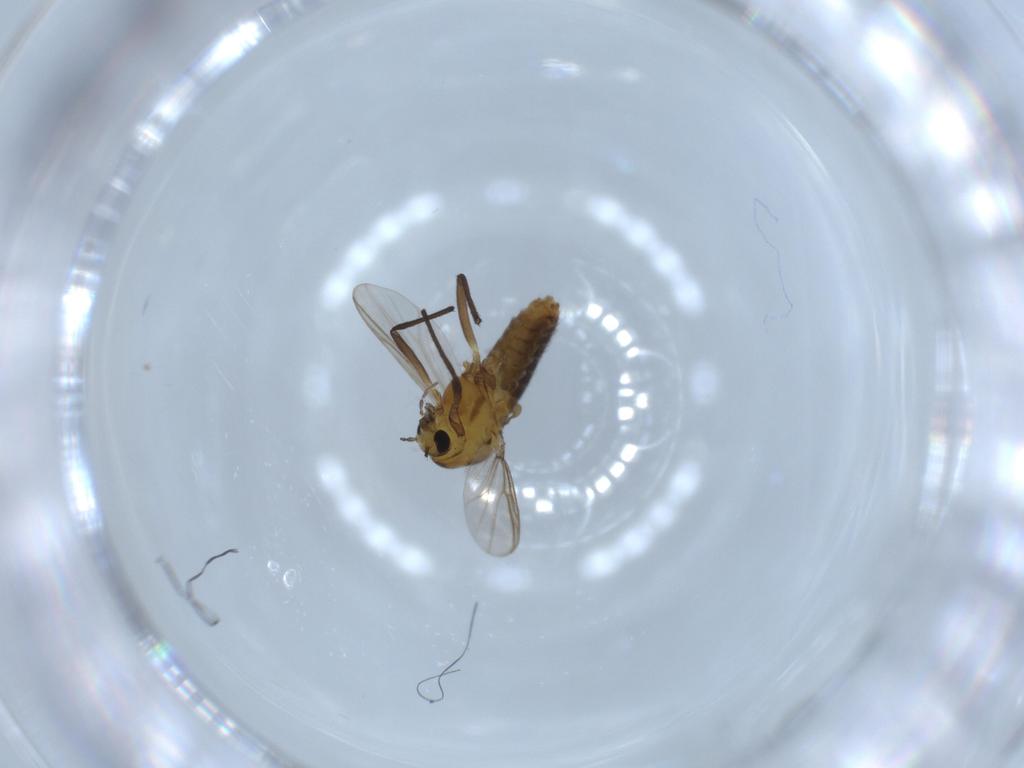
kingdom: Animalia
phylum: Arthropoda
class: Insecta
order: Diptera
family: Chironomidae
